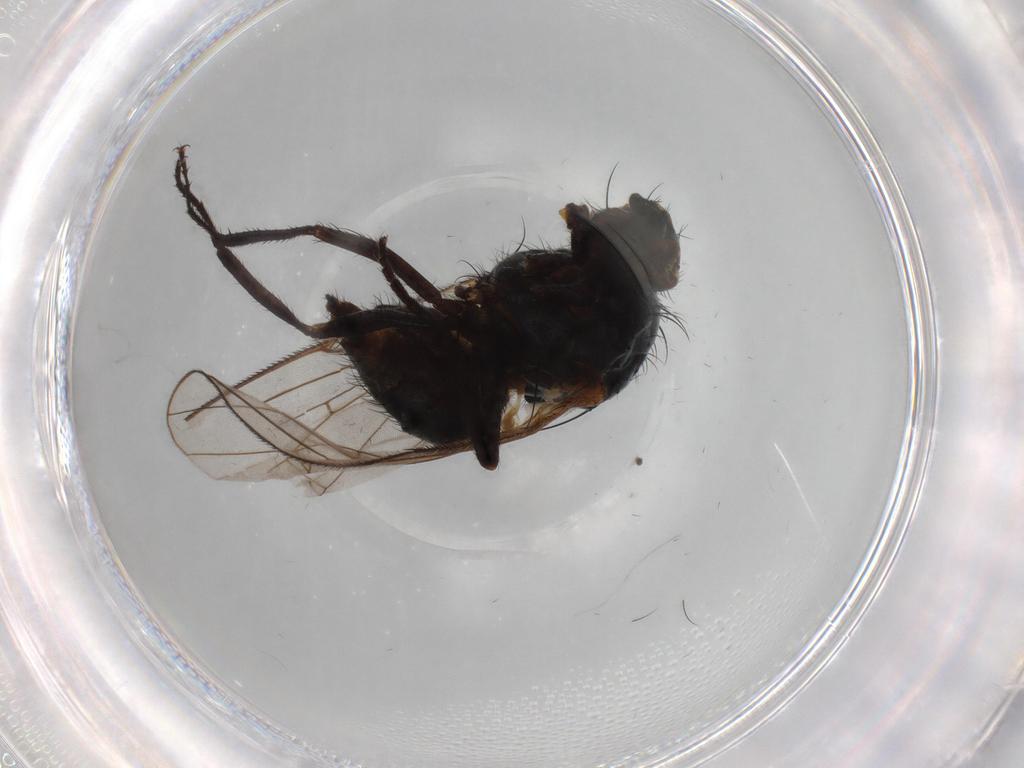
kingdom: Animalia
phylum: Arthropoda
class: Insecta
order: Diptera
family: Anthomyiidae
